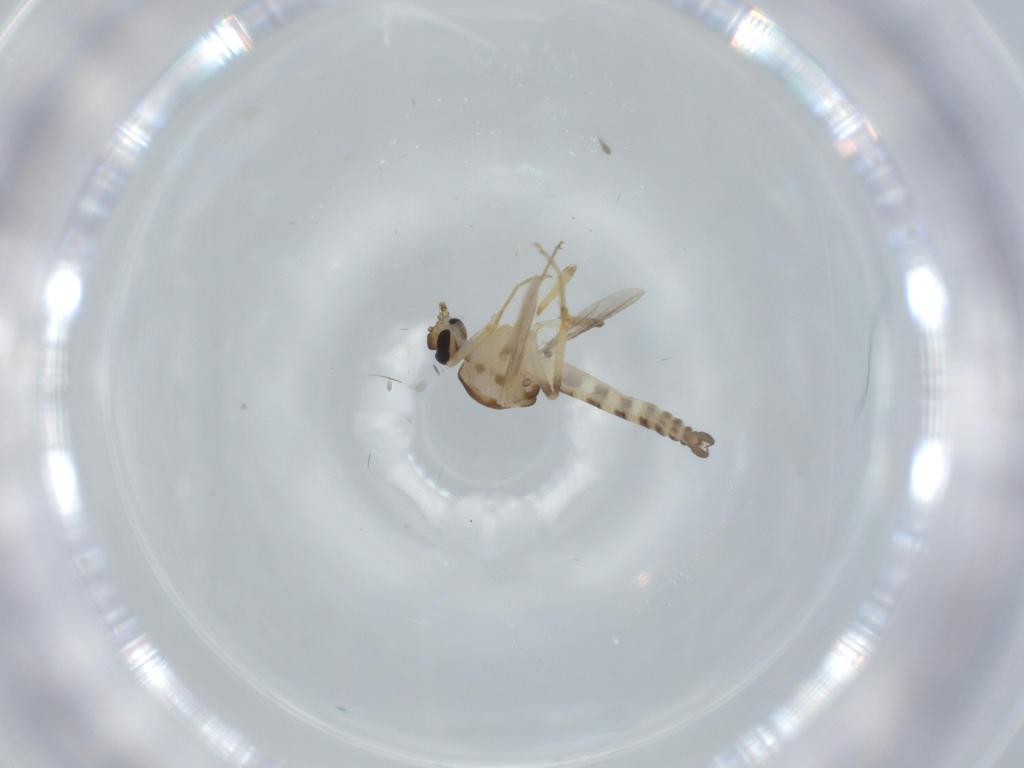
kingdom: Animalia
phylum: Arthropoda
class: Insecta
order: Diptera
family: Ceratopogonidae
